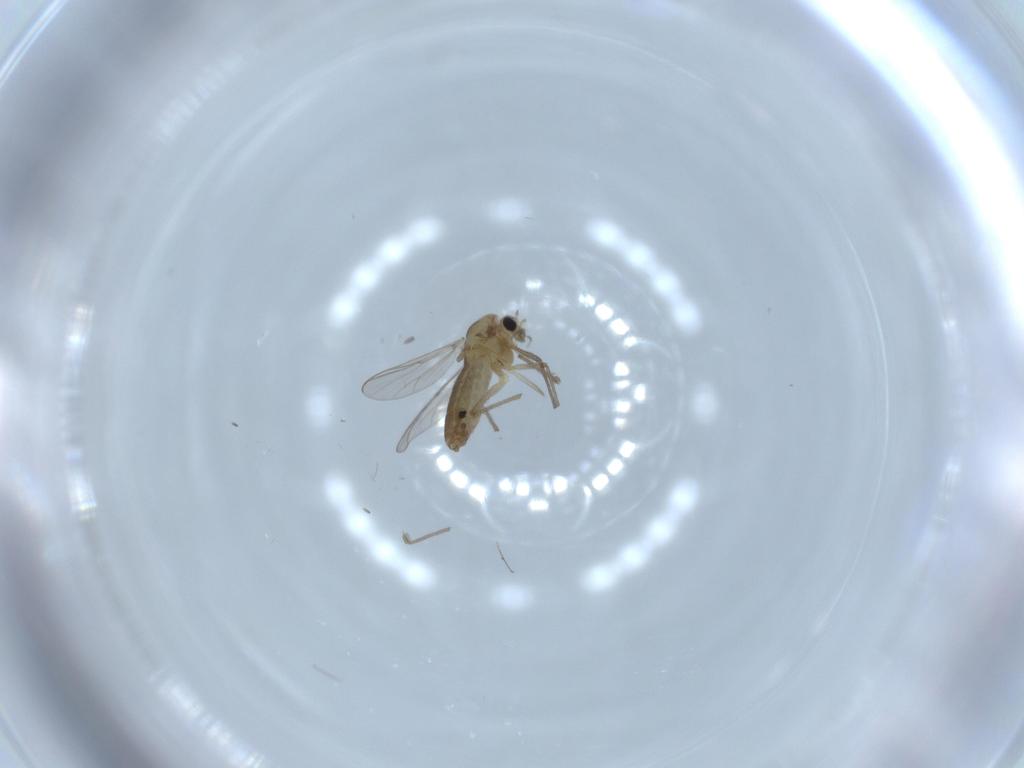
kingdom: Animalia
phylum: Arthropoda
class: Insecta
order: Diptera
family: Chironomidae
